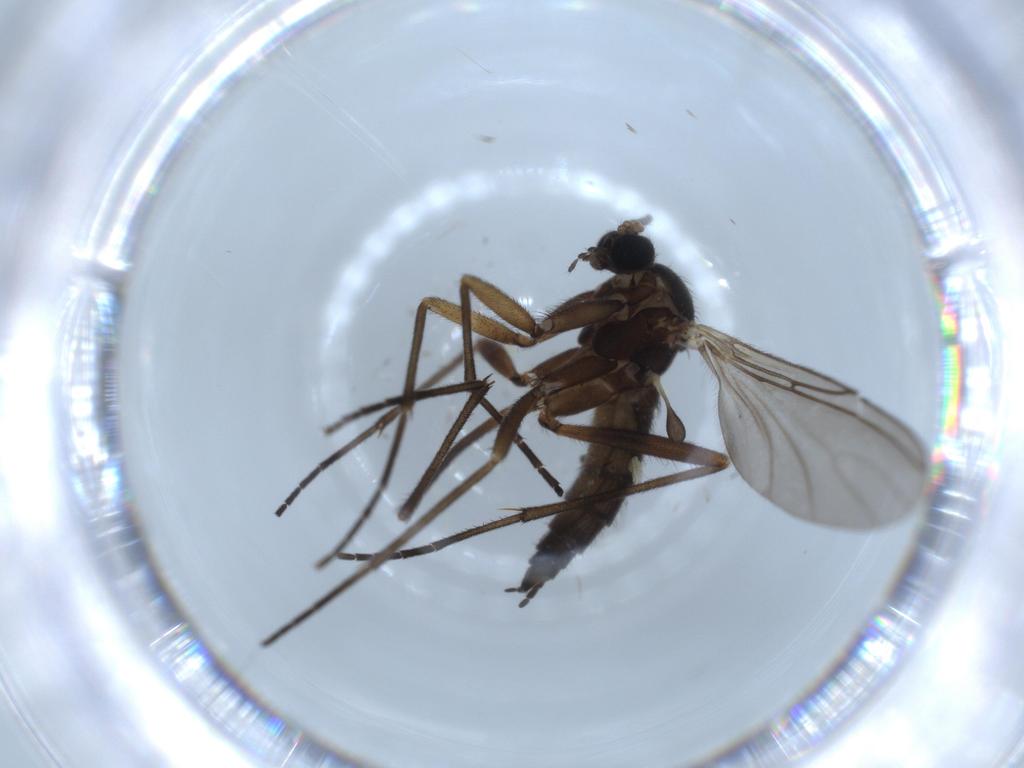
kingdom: Animalia
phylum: Arthropoda
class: Insecta
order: Diptera
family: Sciaridae
